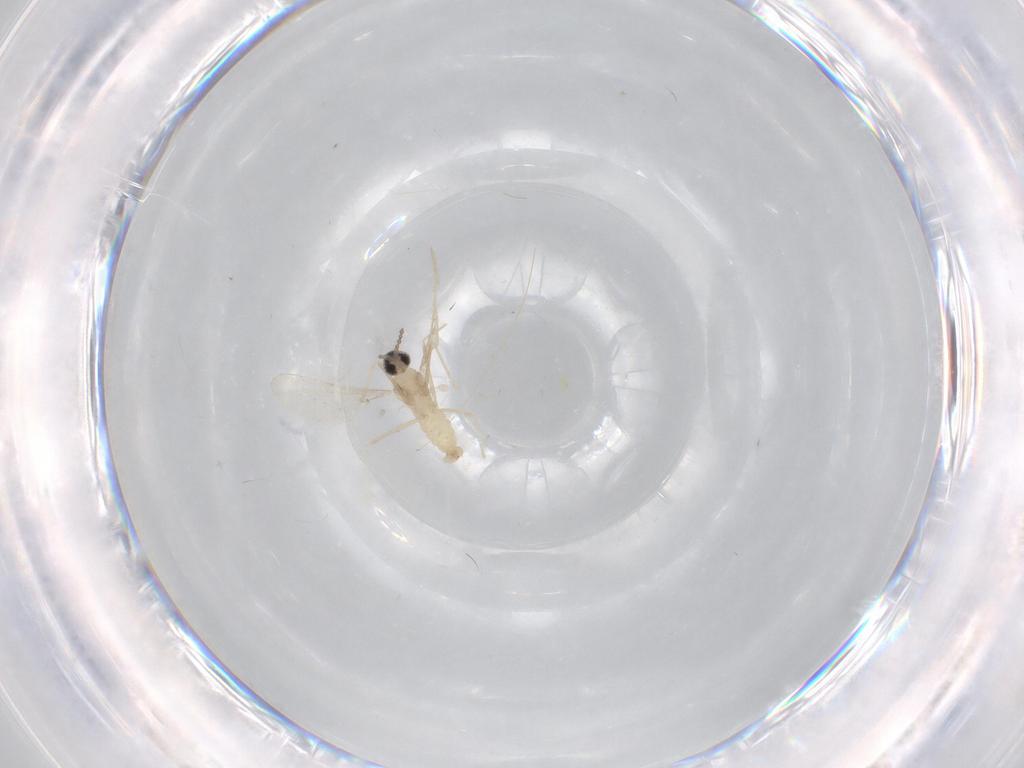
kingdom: Animalia
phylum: Arthropoda
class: Insecta
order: Diptera
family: Cecidomyiidae
